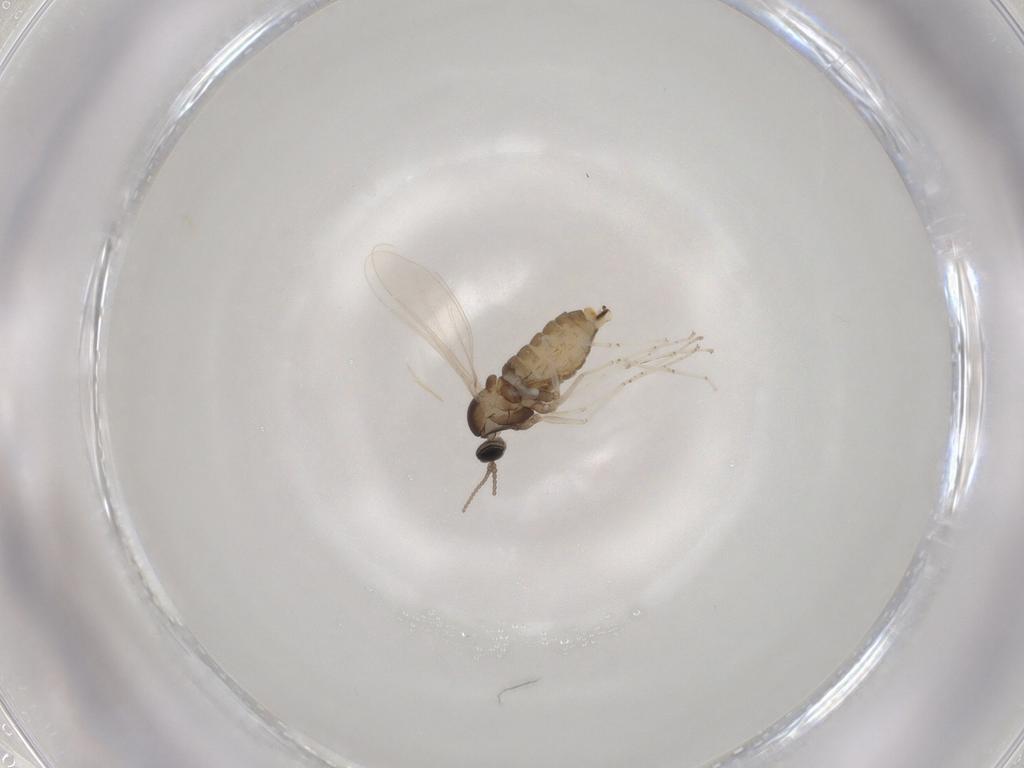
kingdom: Animalia
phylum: Arthropoda
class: Insecta
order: Diptera
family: Cecidomyiidae
